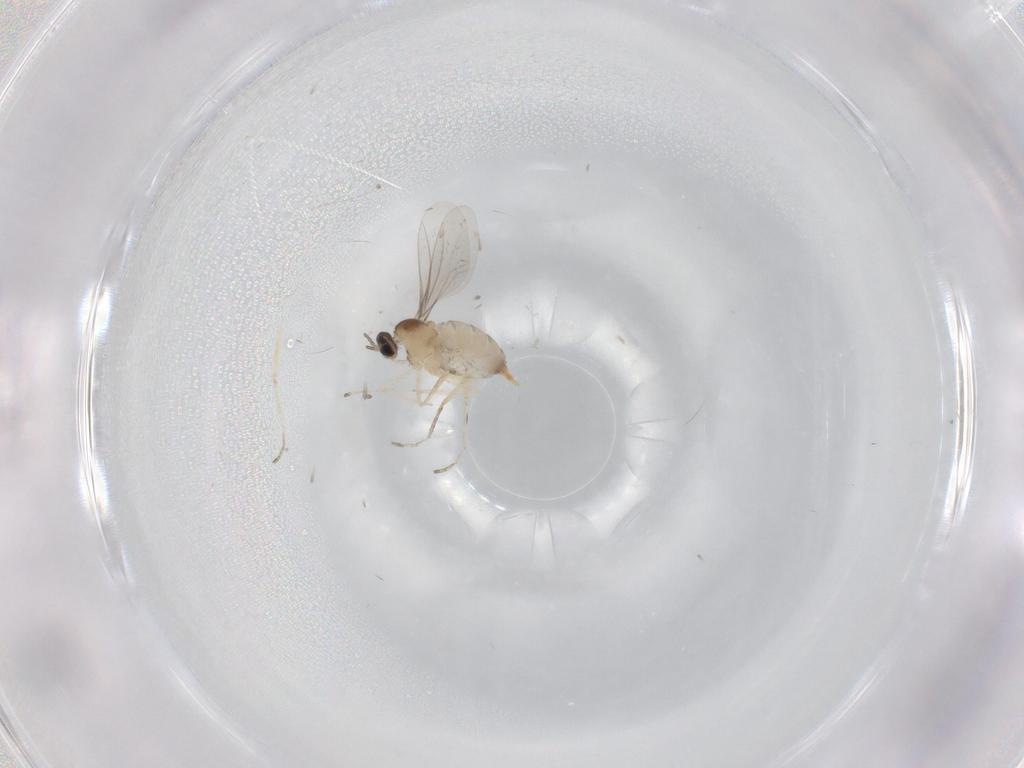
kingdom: Animalia
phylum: Arthropoda
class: Insecta
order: Diptera
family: Cecidomyiidae
